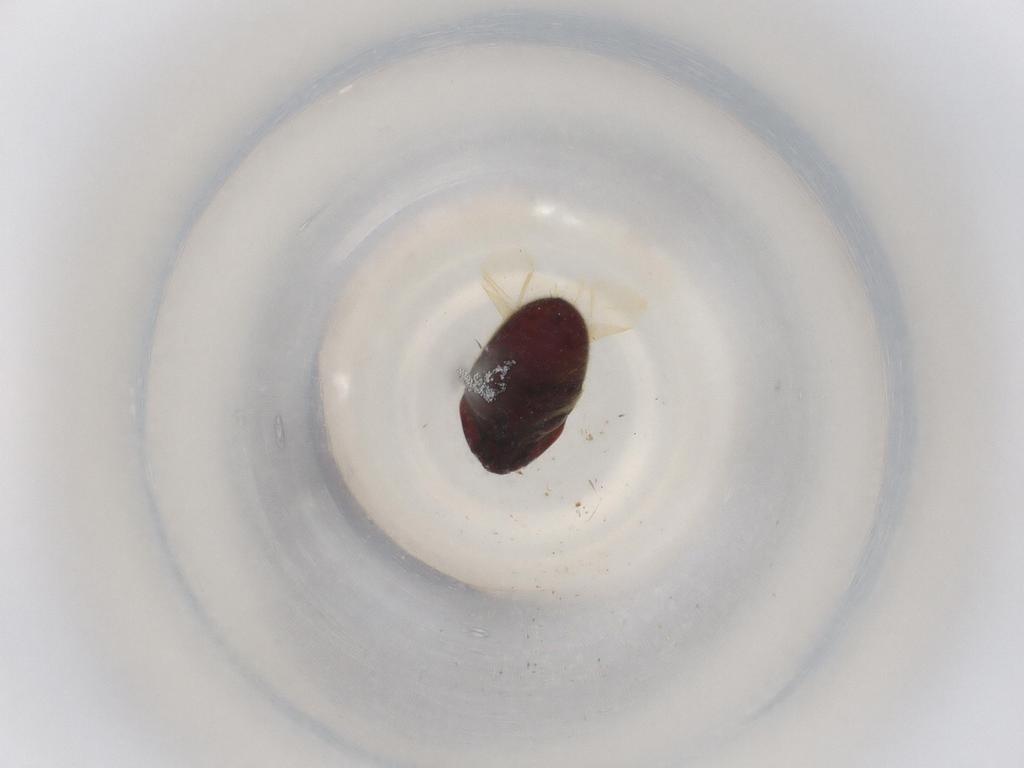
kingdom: Animalia
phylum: Arthropoda
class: Insecta
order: Coleoptera
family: Throscidae
